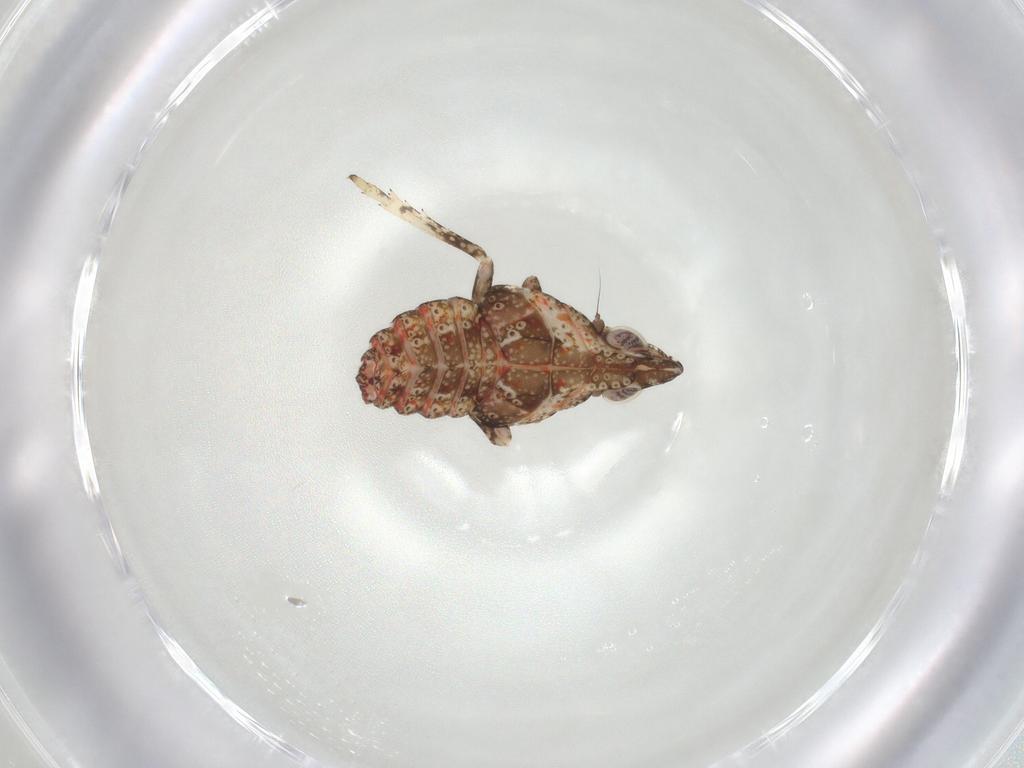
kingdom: Animalia
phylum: Arthropoda
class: Insecta
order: Hemiptera
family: Tropiduchidae
